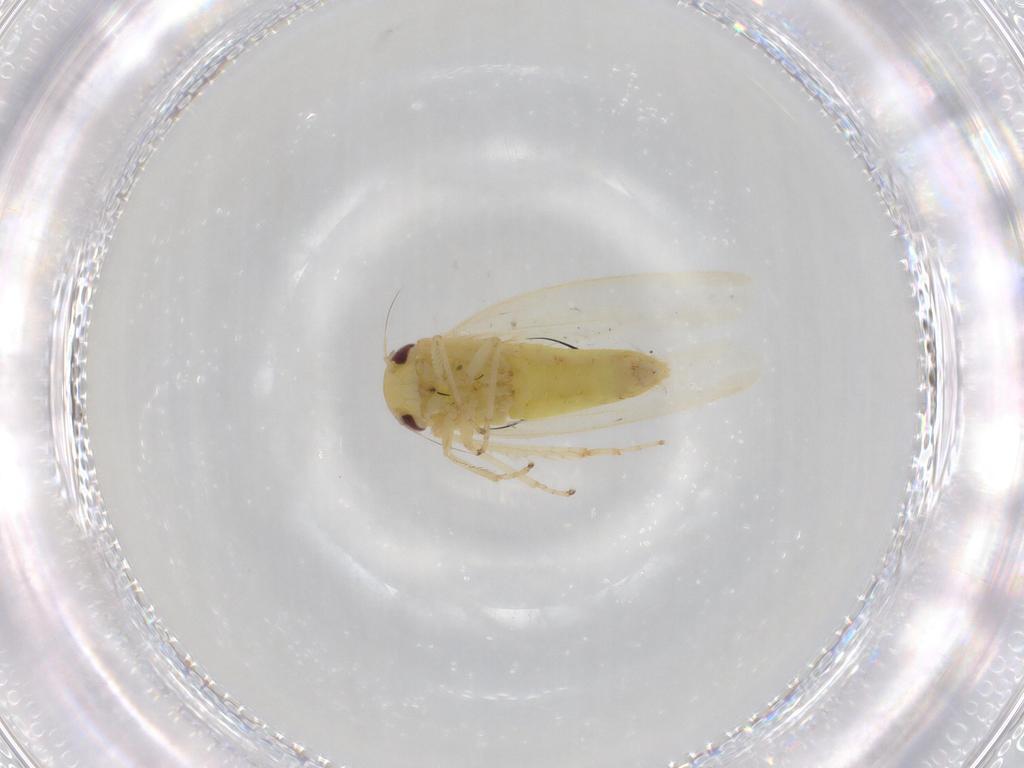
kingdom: Animalia
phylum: Arthropoda
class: Insecta
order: Hemiptera
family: Cicadellidae
